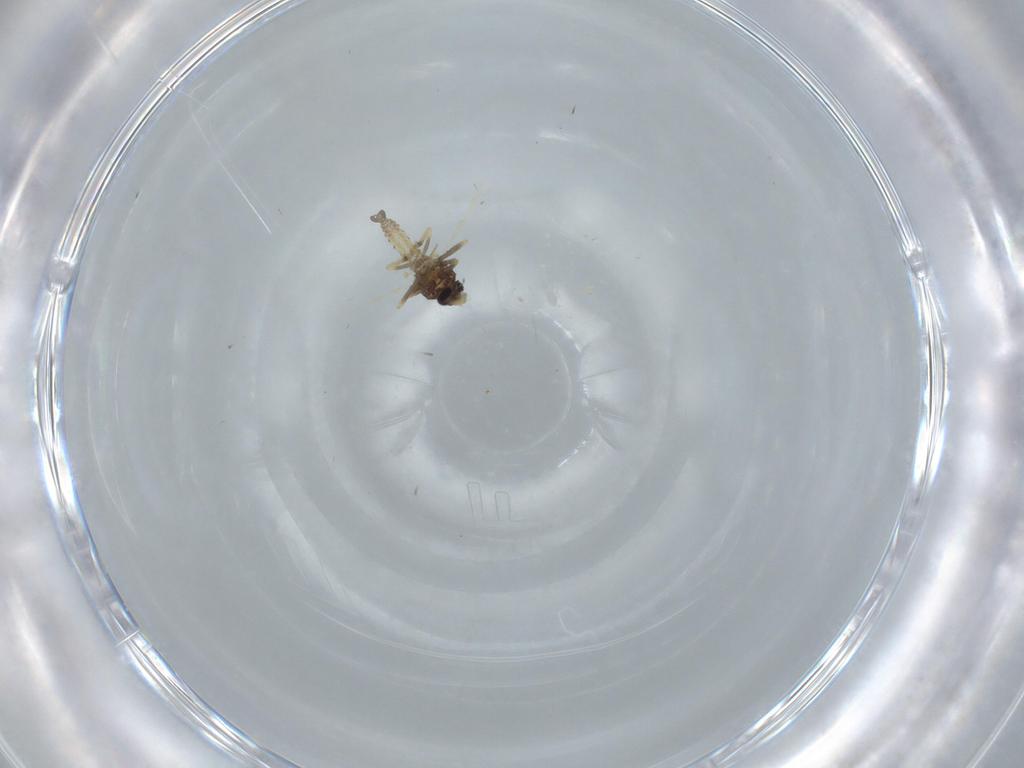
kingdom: Animalia
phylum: Arthropoda
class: Insecta
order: Diptera
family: Ceratopogonidae
